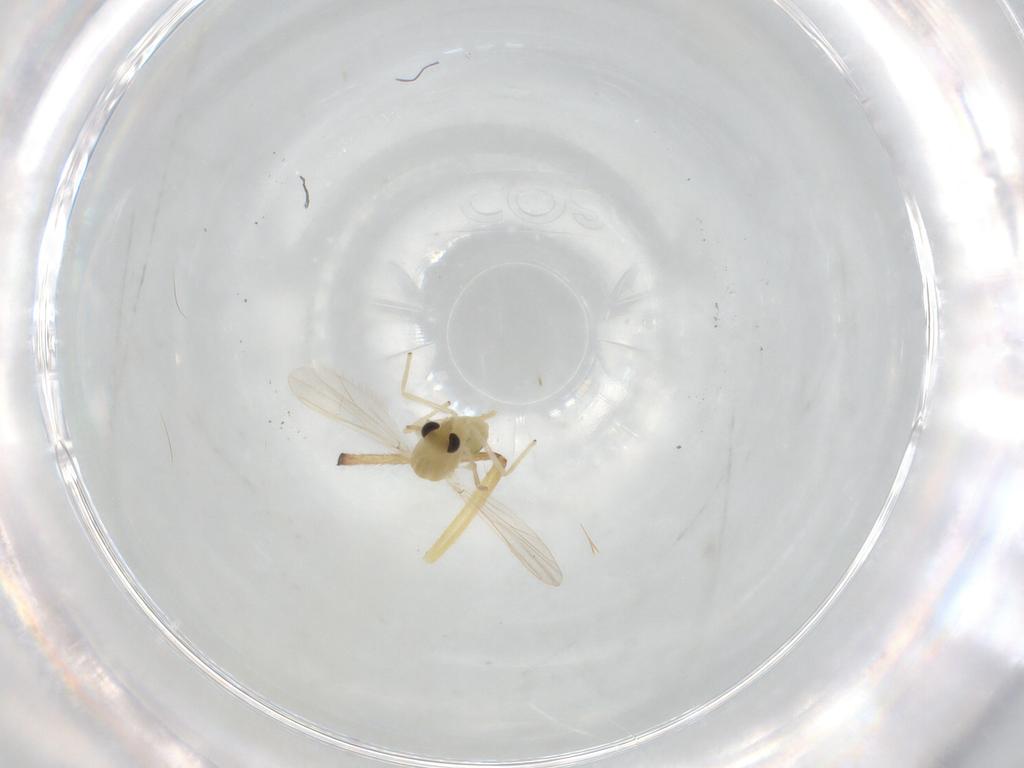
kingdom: Animalia
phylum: Arthropoda
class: Insecta
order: Diptera
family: Chironomidae
